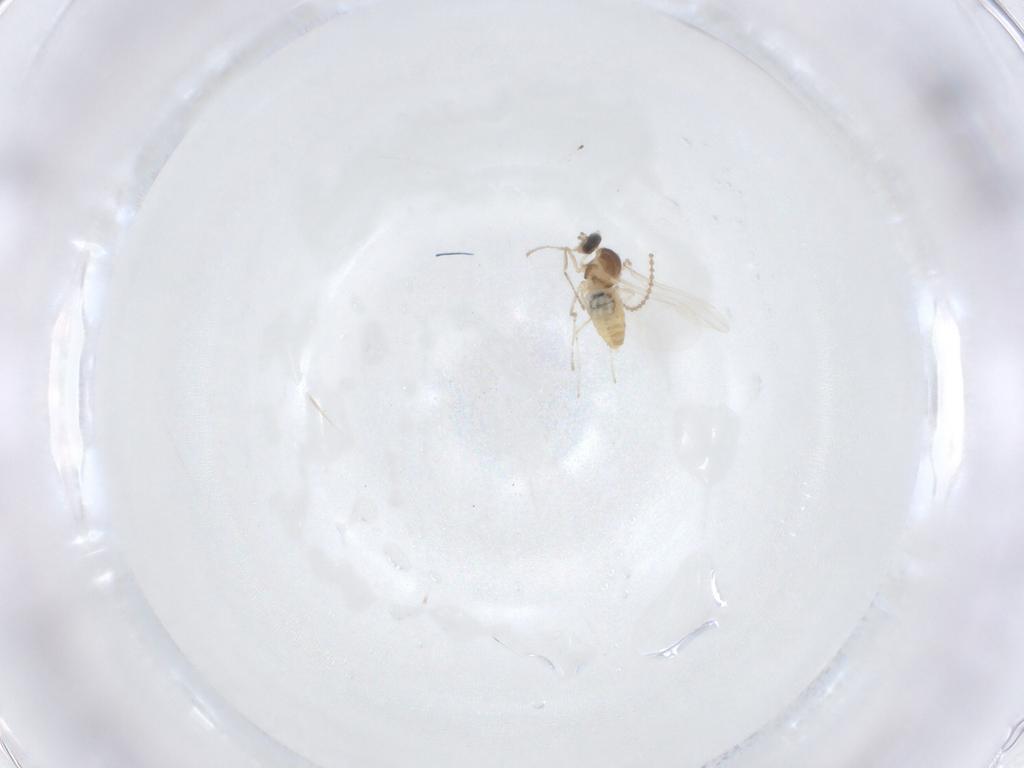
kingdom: Animalia
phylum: Arthropoda
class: Insecta
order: Diptera
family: Cecidomyiidae
